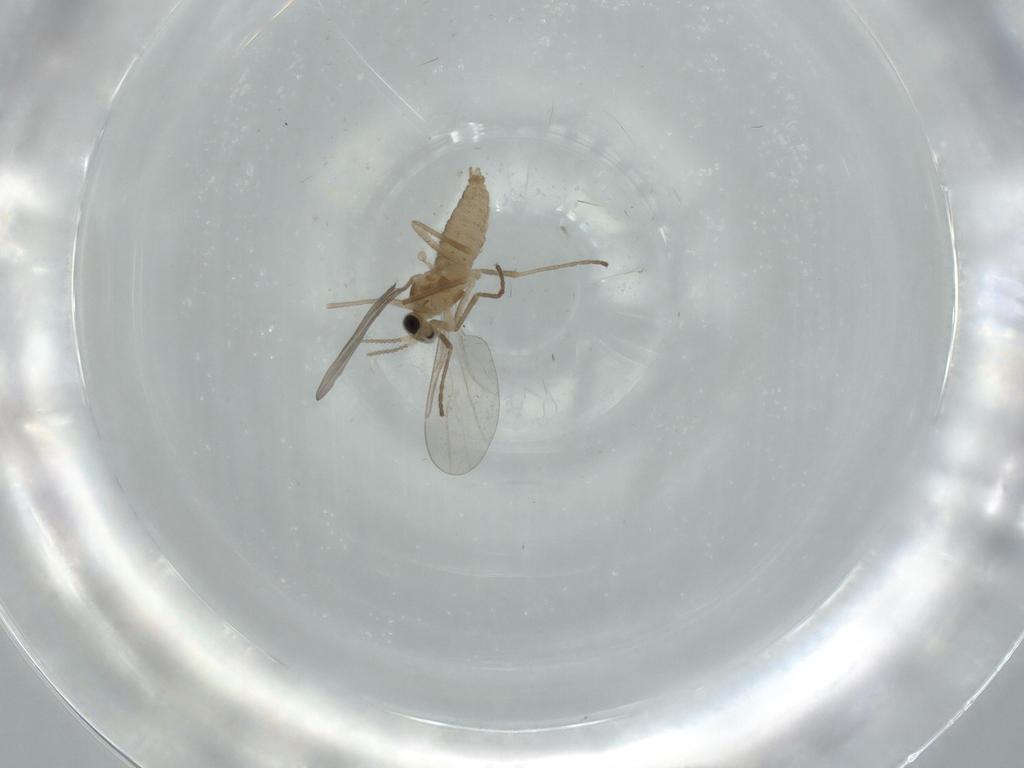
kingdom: Animalia
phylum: Arthropoda
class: Insecta
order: Diptera
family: Cecidomyiidae
